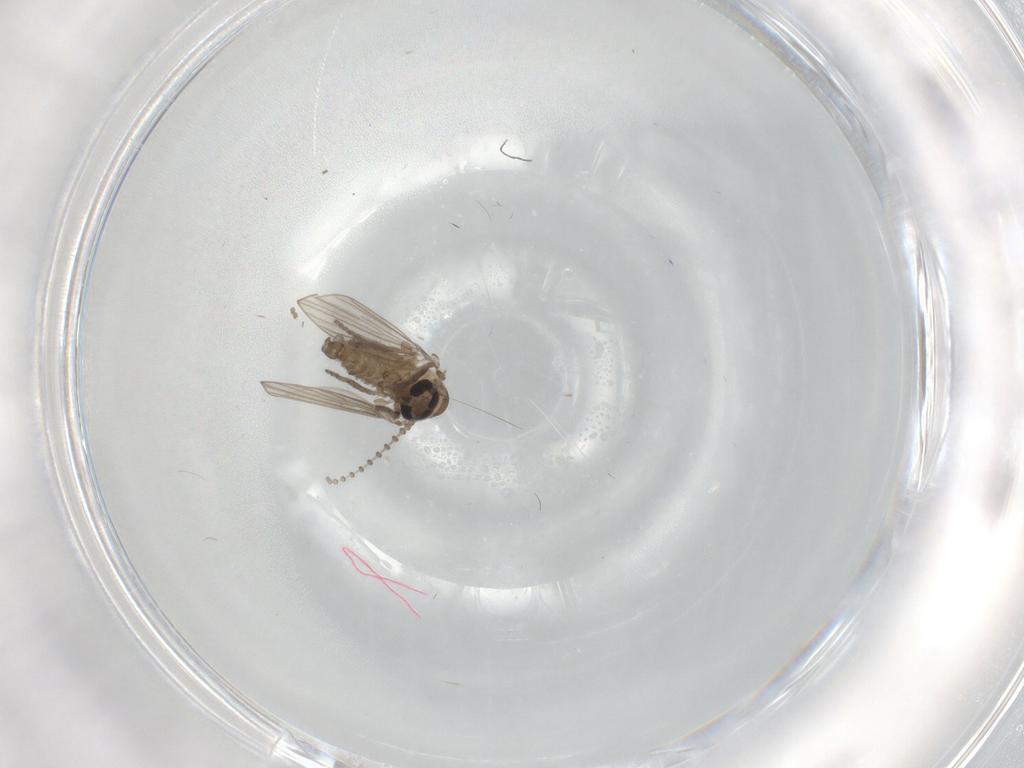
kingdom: Animalia
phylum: Arthropoda
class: Insecta
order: Diptera
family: Psychodidae
